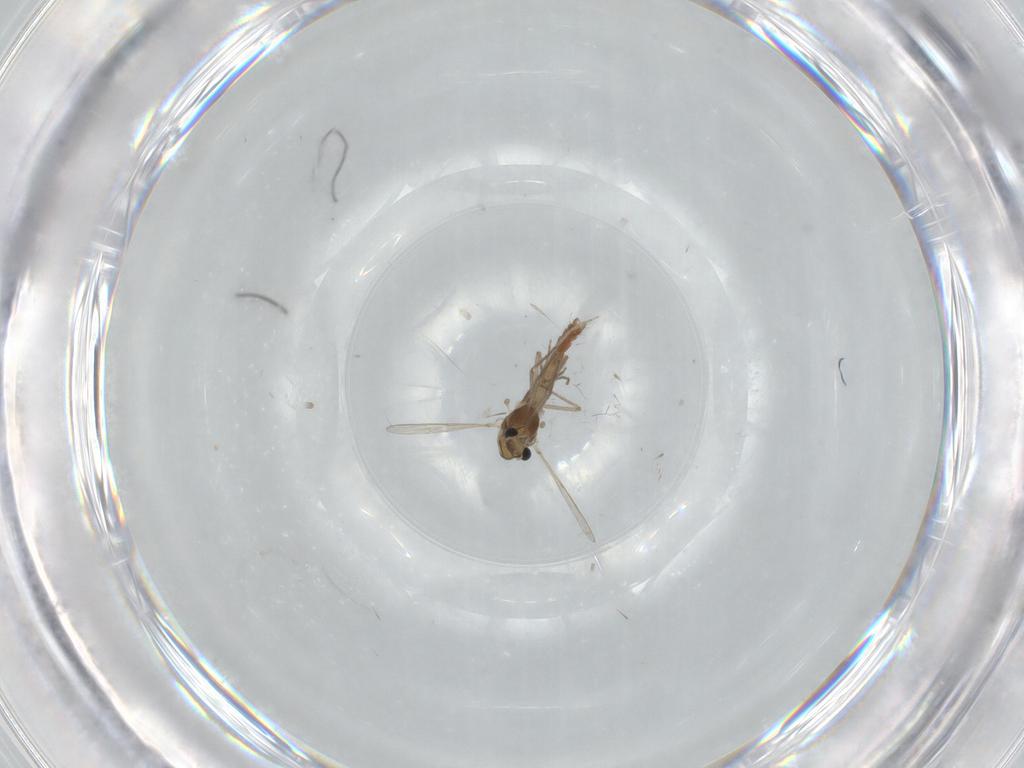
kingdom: Animalia
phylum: Arthropoda
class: Insecta
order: Diptera
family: Chironomidae
